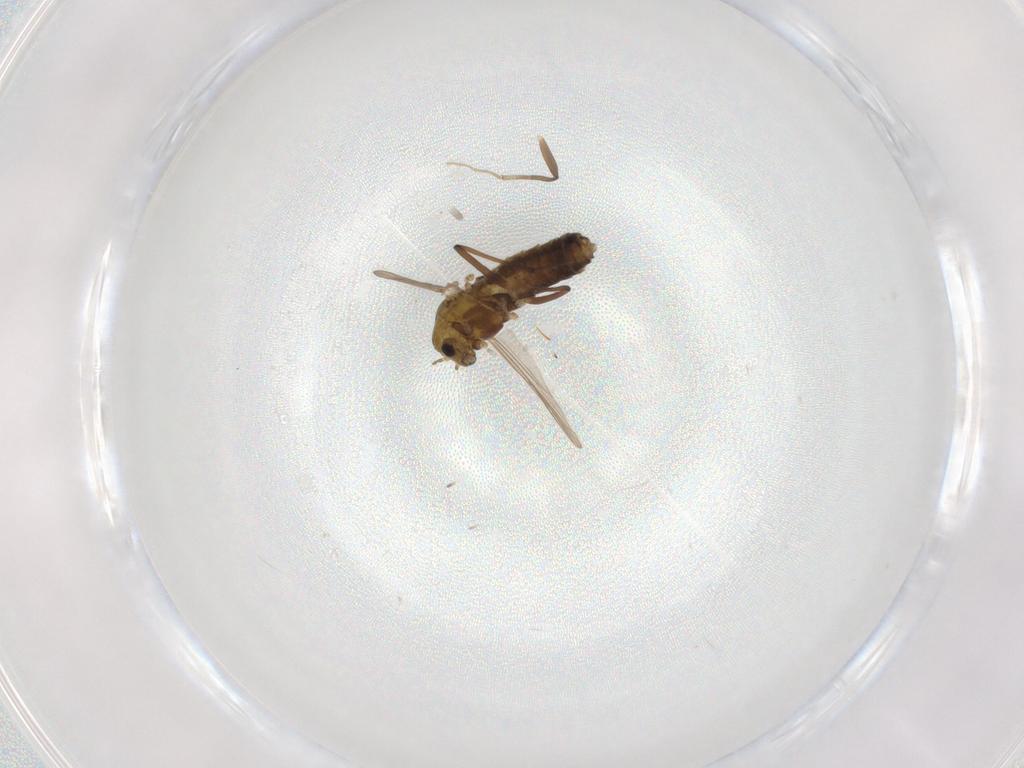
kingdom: Animalia
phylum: Arthropoda
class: Insecta
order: Diptera
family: Chironomidae
